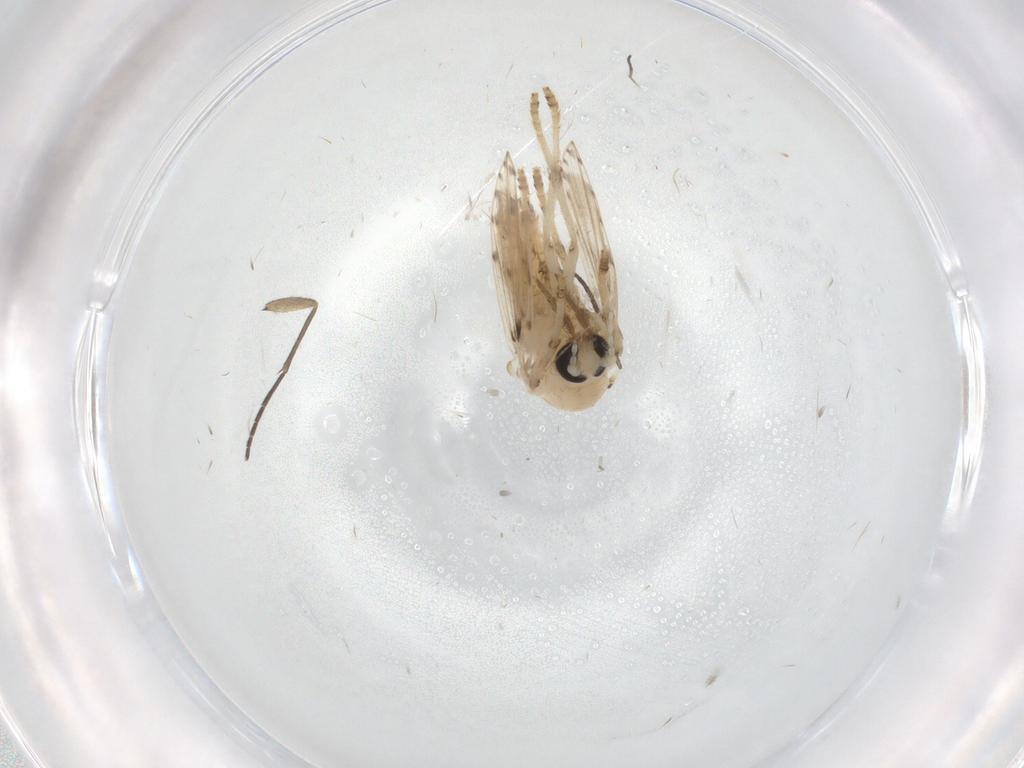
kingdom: Animalia
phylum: Arthropoda
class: Insecta
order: Diptera
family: Psychodidae
